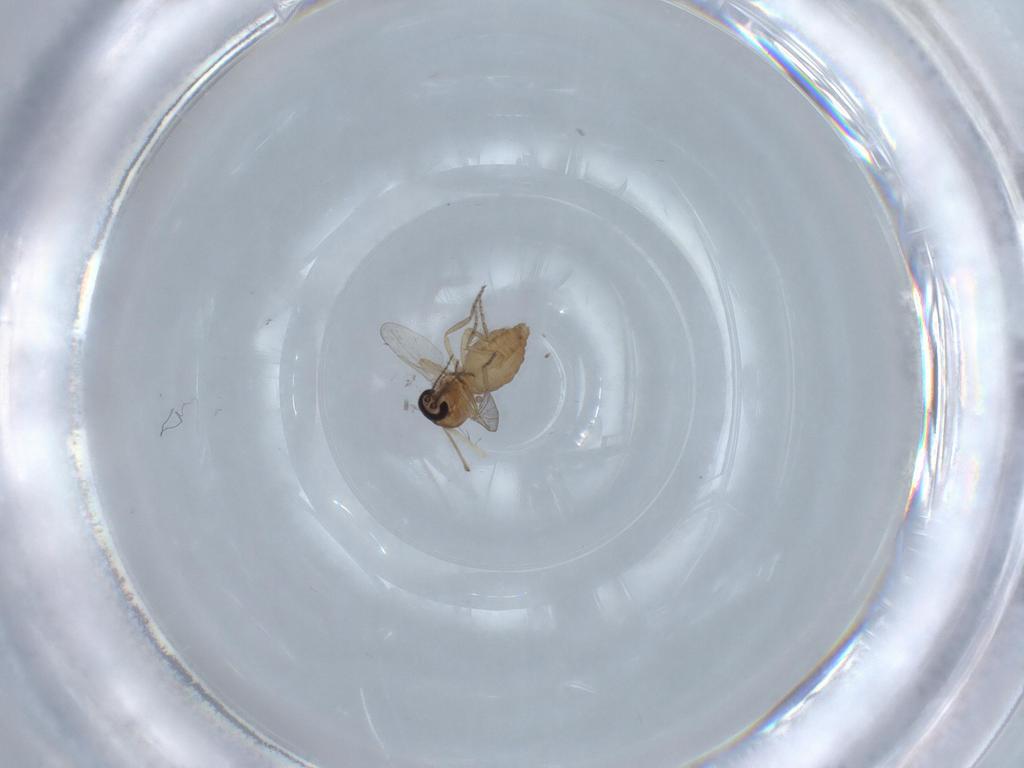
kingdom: Animalia
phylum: Arthropoda
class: Insecta
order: Diptera
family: Ceratopogonidae
